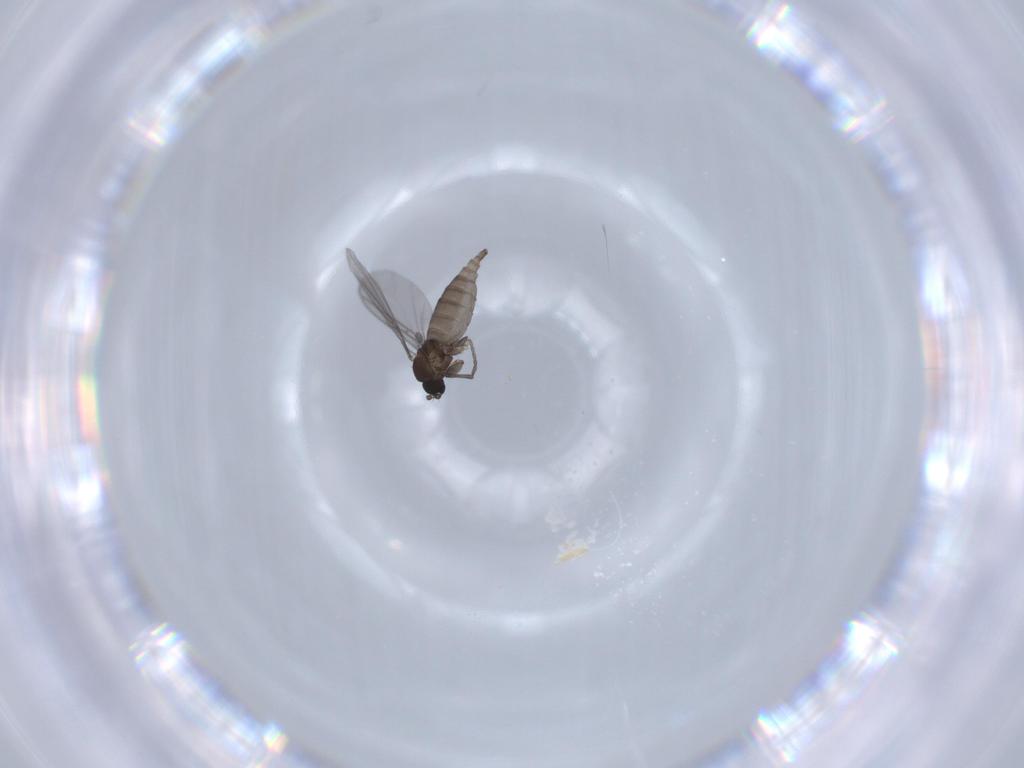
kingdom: Animalia
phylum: Arthropoda
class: Insecta
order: Diptera
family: Sciaridae
